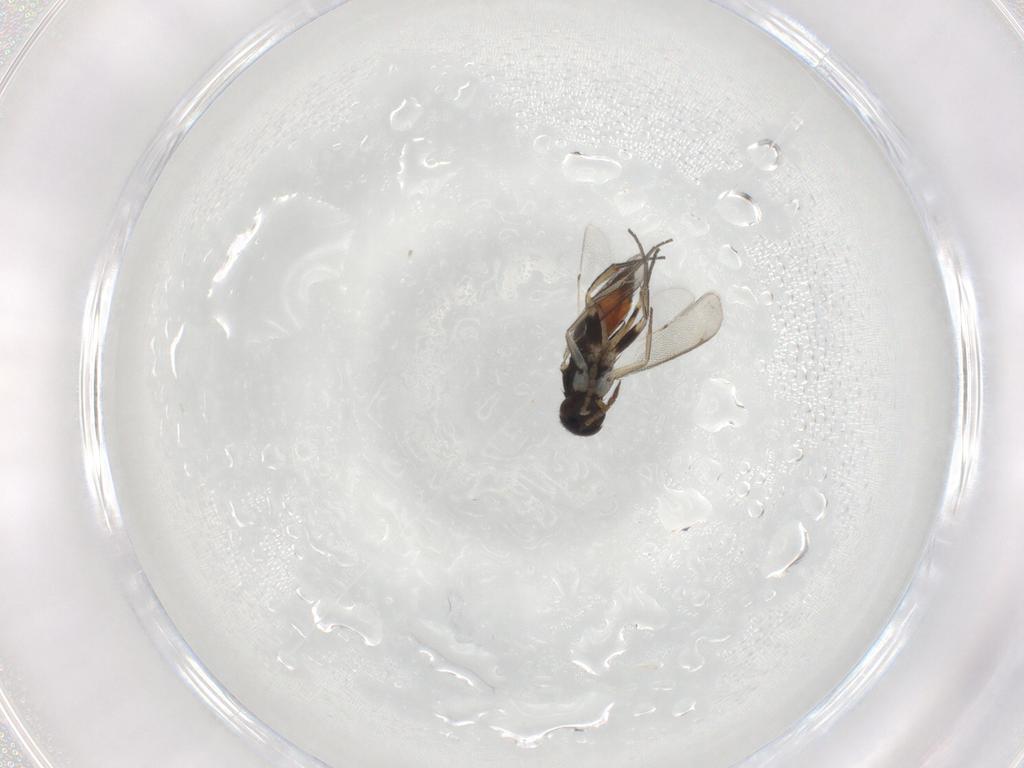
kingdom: Animalia
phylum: Arthropoda
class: Insecta
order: Hymenoptera
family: Eulophidae
